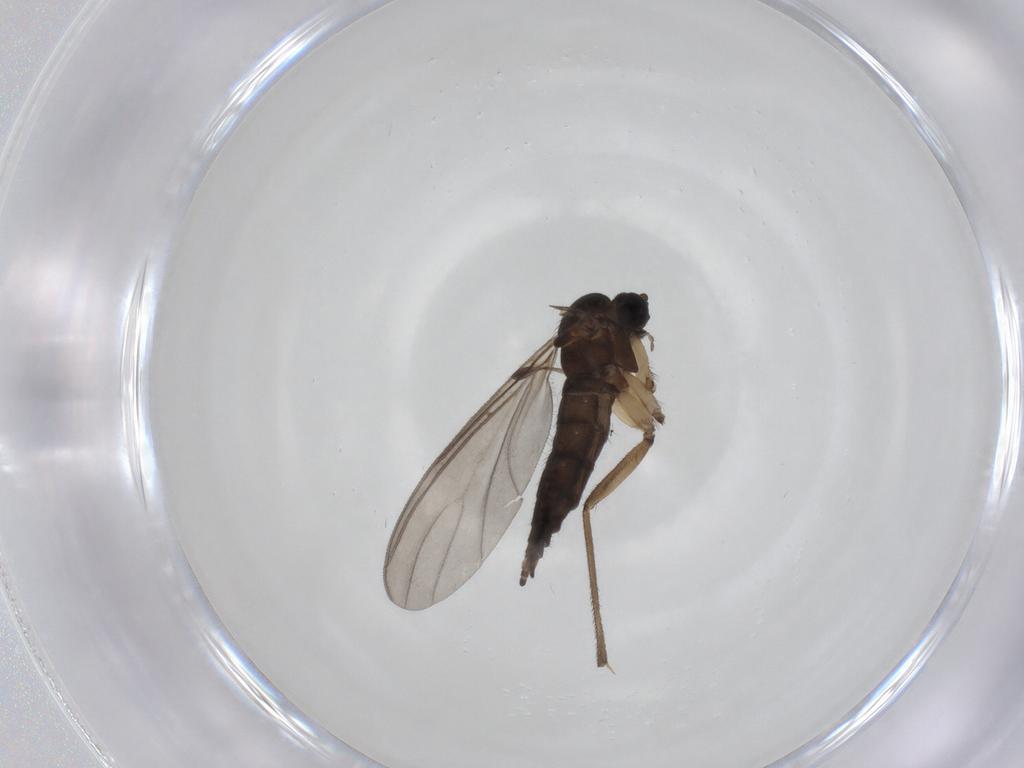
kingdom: Animalia
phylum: Arthropoda
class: Insecta
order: Diptera
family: Sciaridae
